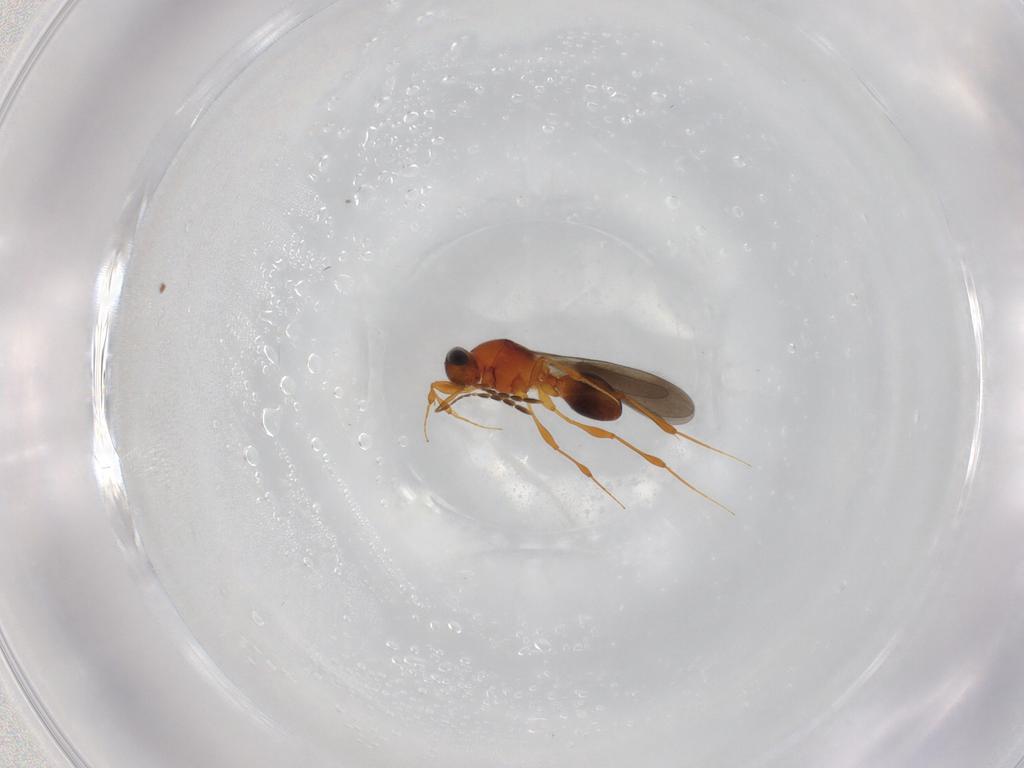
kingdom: Animalia
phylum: Arthropoda
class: Insecta
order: Hymenoptera
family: Platygastridae
